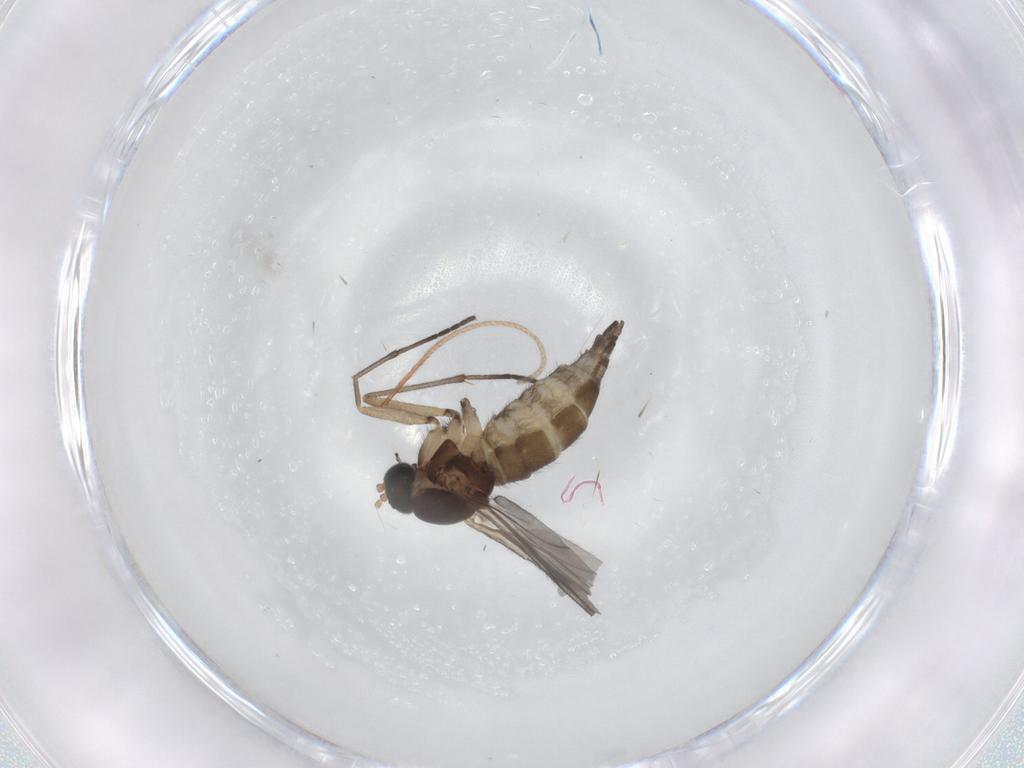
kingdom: Animalia
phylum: Arthropoda
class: Insecta
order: Diptera
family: Sciaridae
